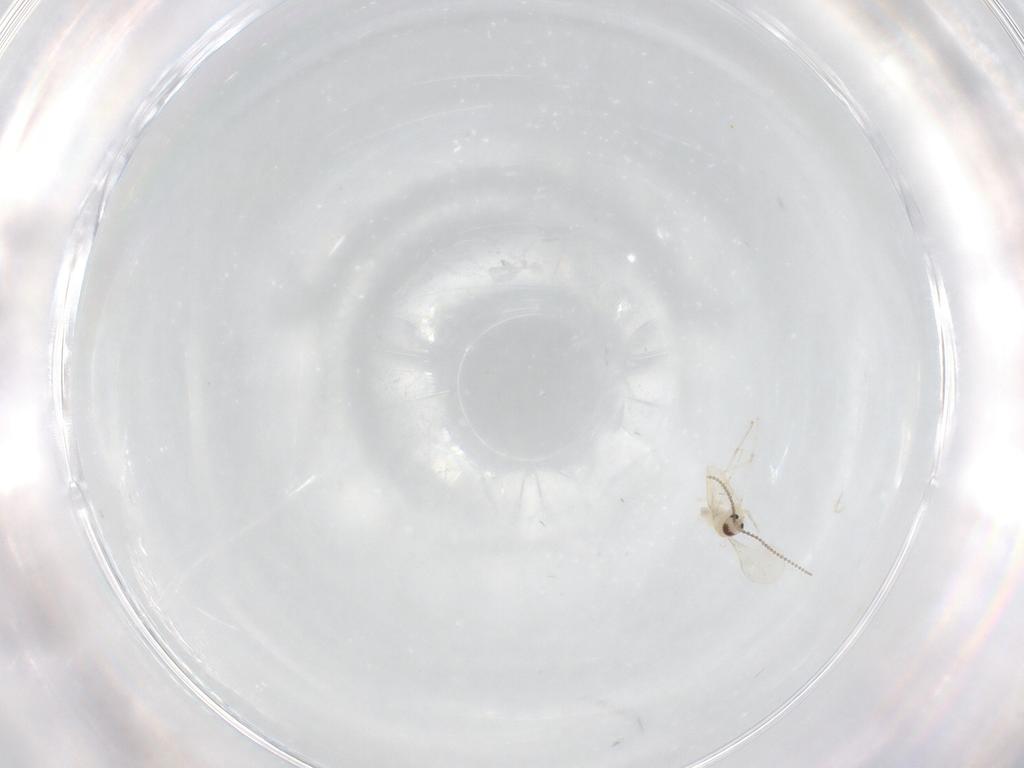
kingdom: Animalia
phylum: Arthropoda
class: Insecta
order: Diptera
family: Cecidomyiidae
